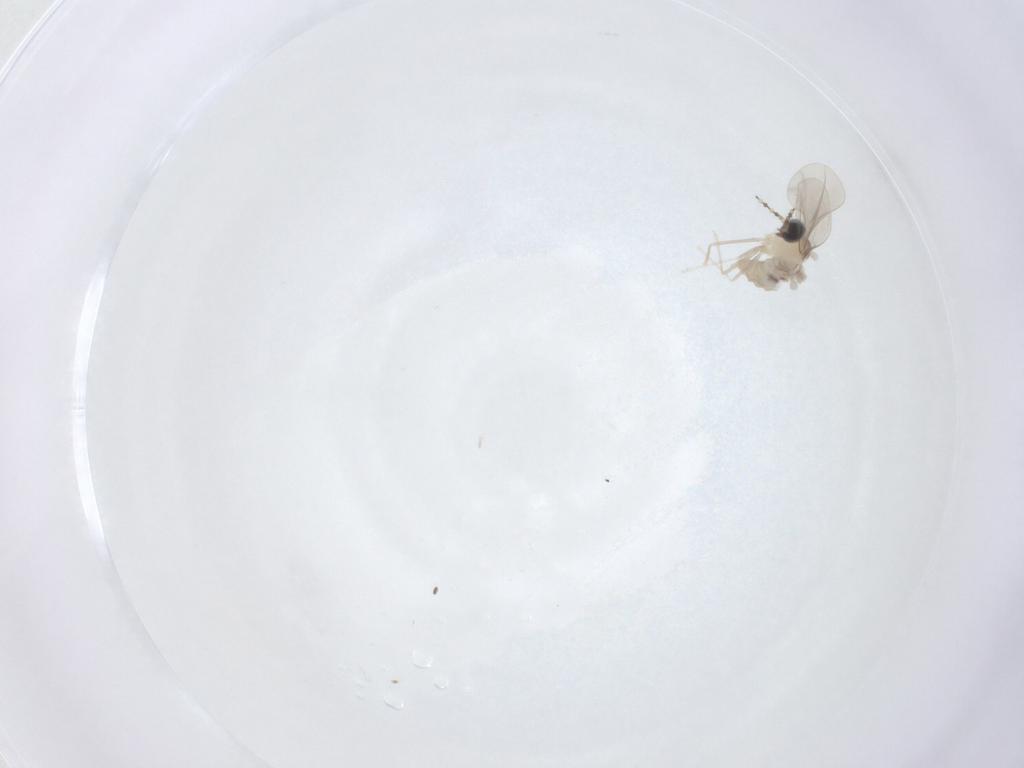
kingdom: Animalia
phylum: Arthropoda
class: Insecta
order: Diptera
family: Cecidomyiidae
